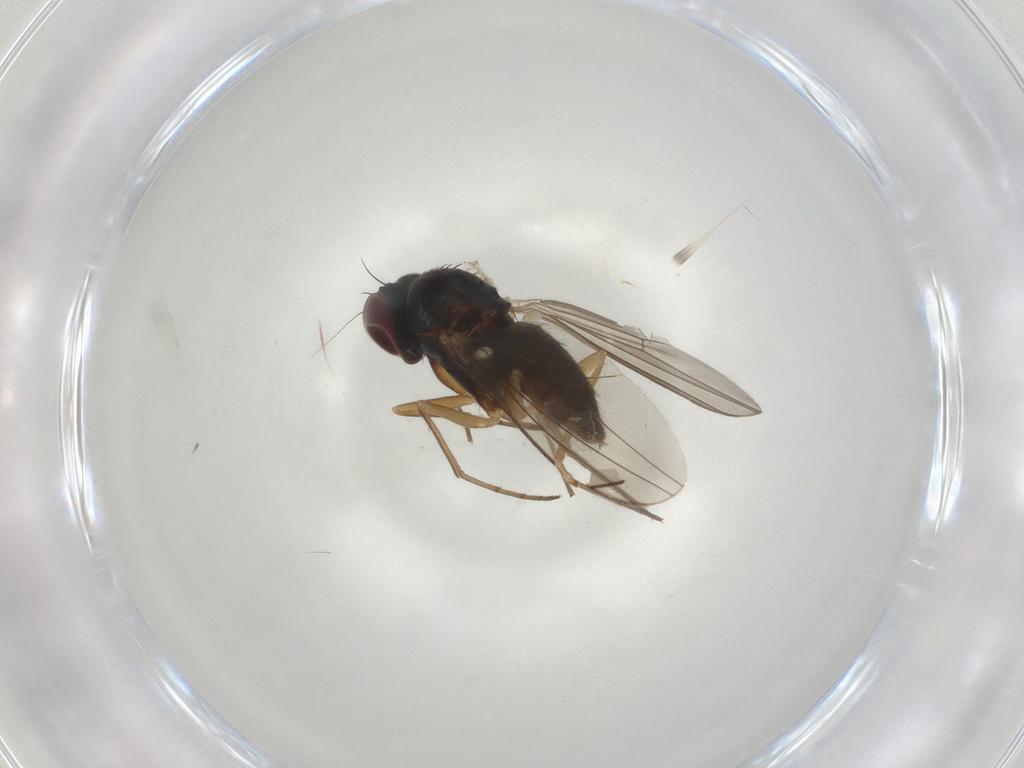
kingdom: Animalia
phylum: Arthropoda
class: Insecta
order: Diptera
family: Dolichopodidae
